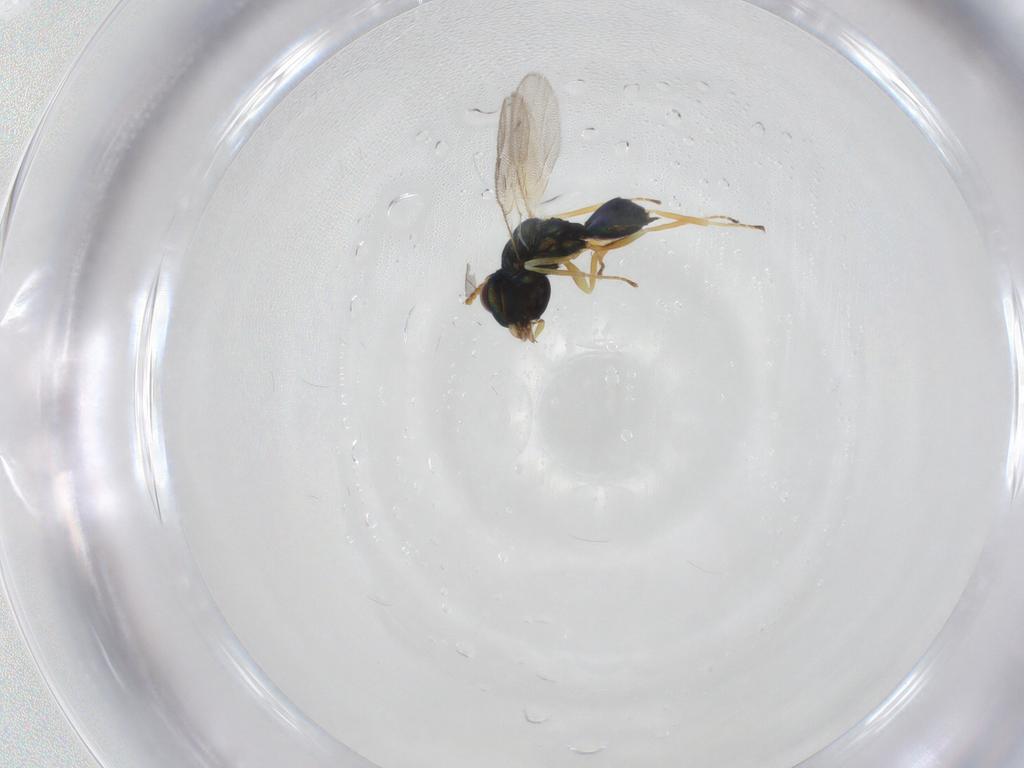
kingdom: Animalia
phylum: Arthropoda
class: Insecta
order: Hymenoptera
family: Pteromalidae
